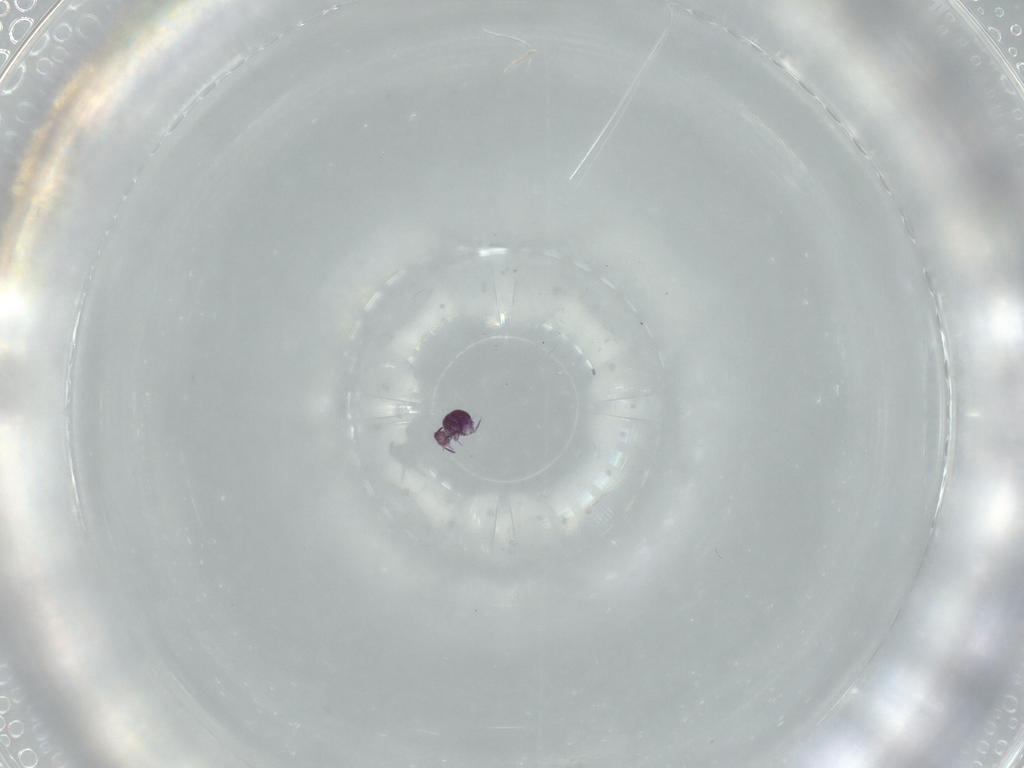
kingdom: Animalia
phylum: Arthropoda
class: Collembola
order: Symphypleona
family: Sminthurididae
